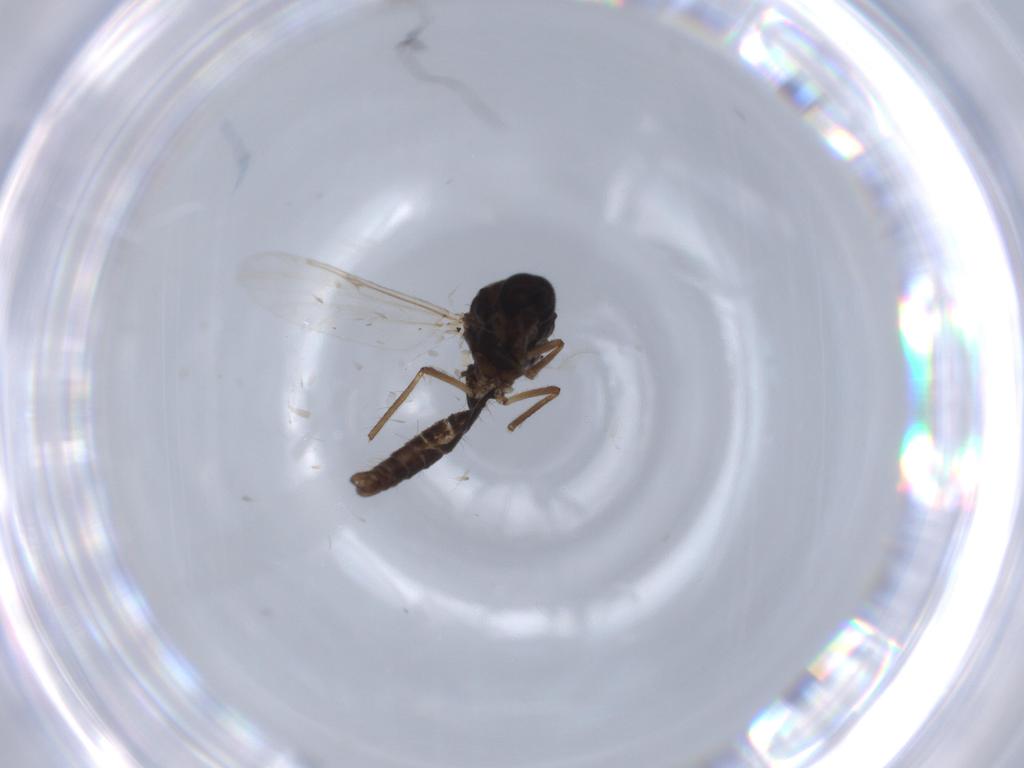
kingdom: Animalia
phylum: Arthropoda
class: Insecta
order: Diptera
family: Ceratopogonidae
